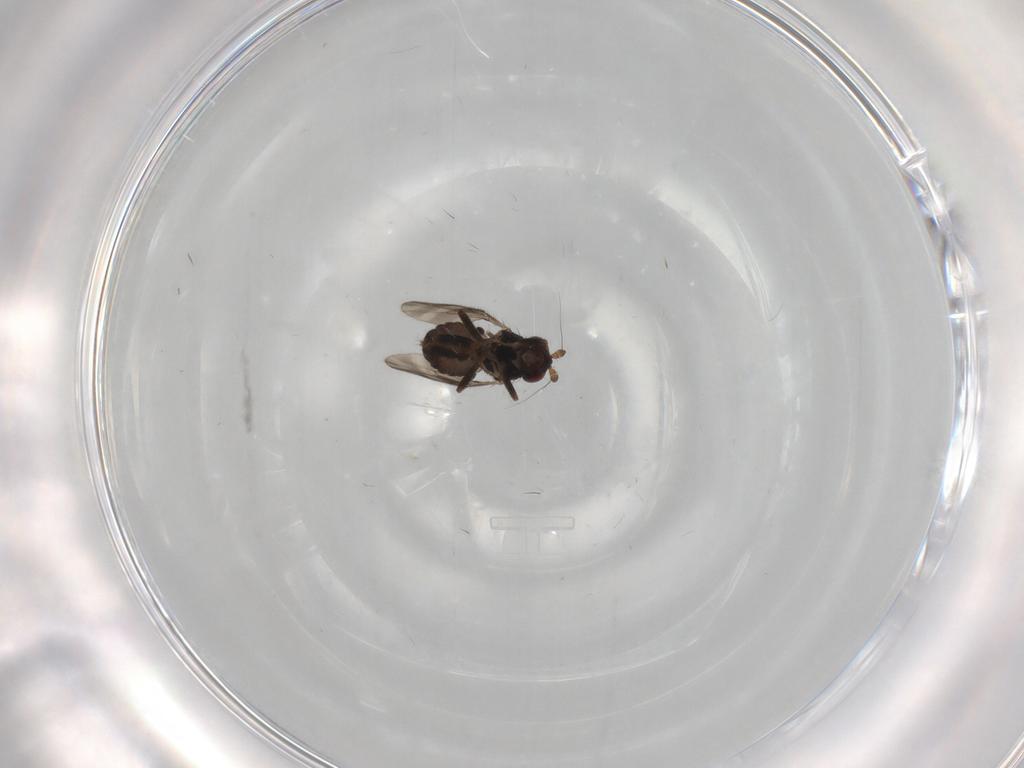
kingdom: Animalia
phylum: Arthropoda
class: Insecta
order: Diptera
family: Sphaeroceridae
